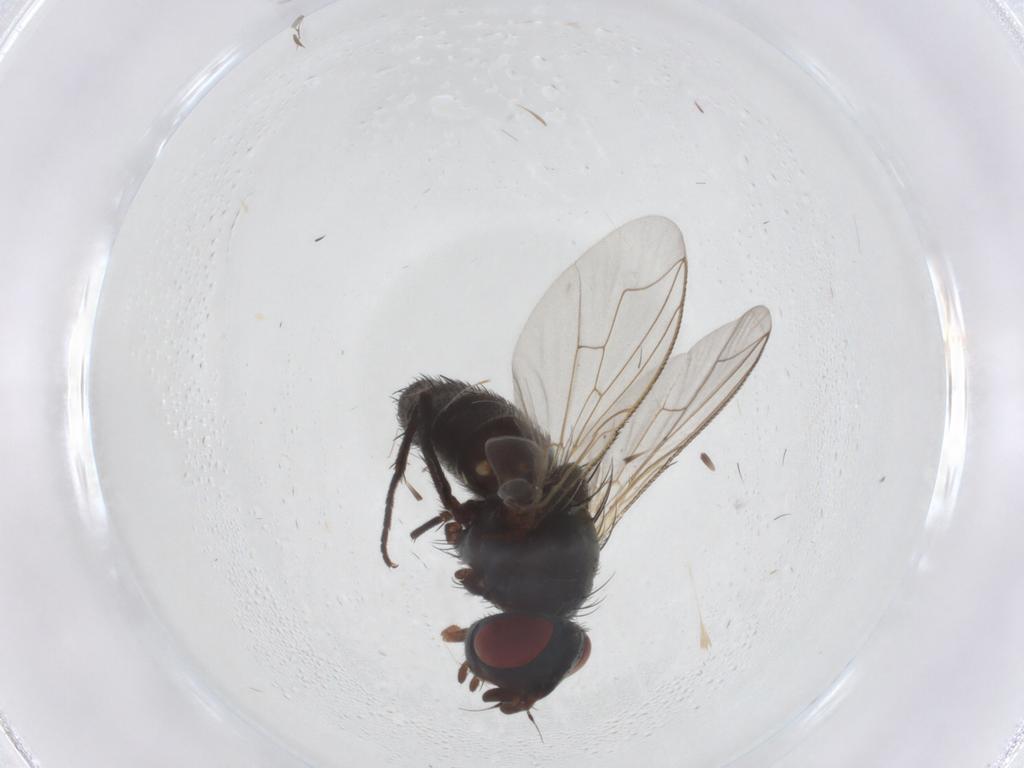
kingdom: Animalia
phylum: Arthropoda
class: Insecta
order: Diptera
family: Sarcophagidae
